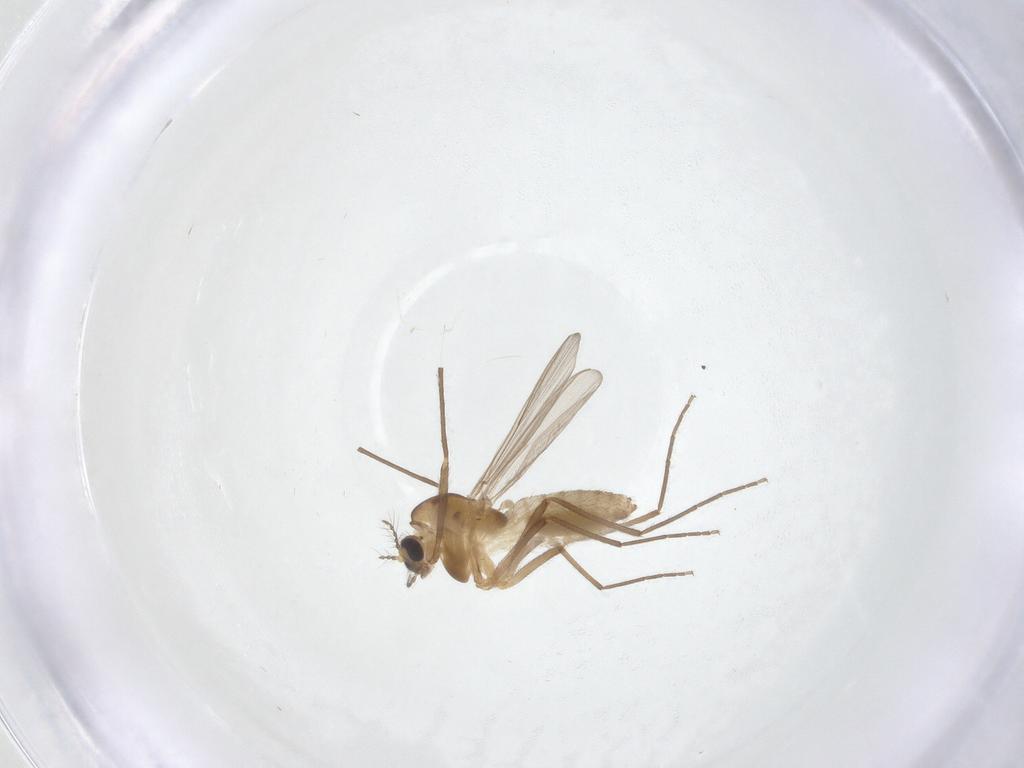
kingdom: Animalia
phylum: Arthropoda
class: Insecta
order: Diptera
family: Chironomidae
